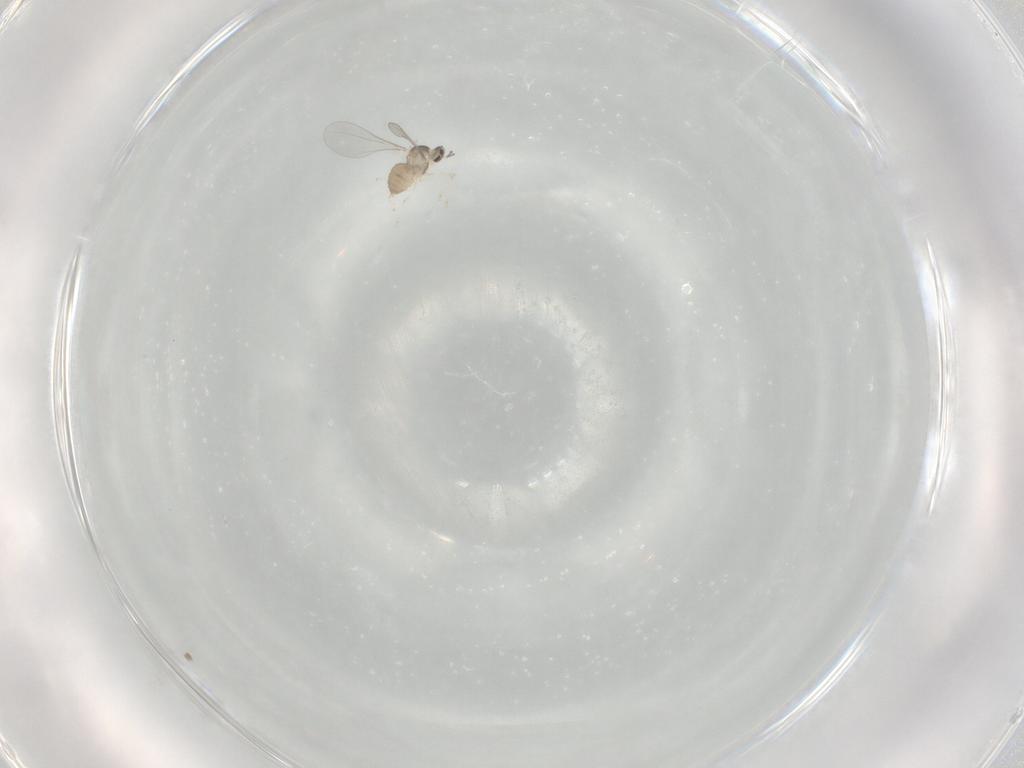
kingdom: Animalia
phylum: Arthropoda
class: Insecta
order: Diptera
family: Cecidomyiidae
